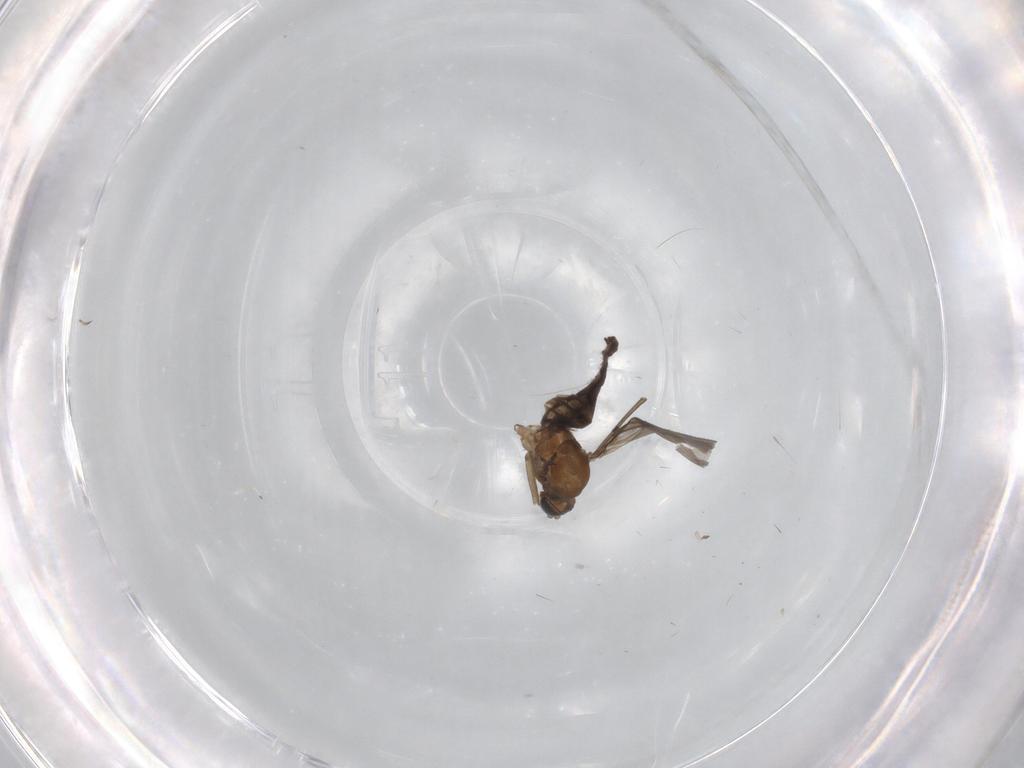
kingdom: Animalia
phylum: Arthropoda
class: Insecta
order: Diptera
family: Sciaridae
